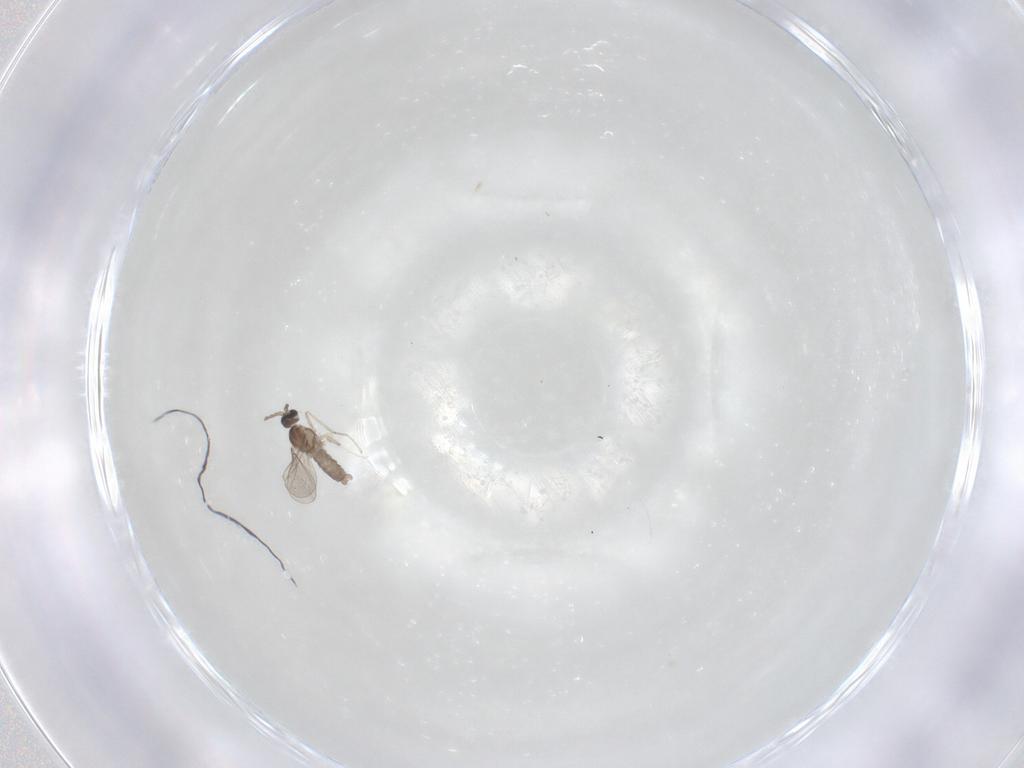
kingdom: Animalia
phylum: Arthropoda
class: Insecta
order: Diptera
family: Cecidomyiidae
